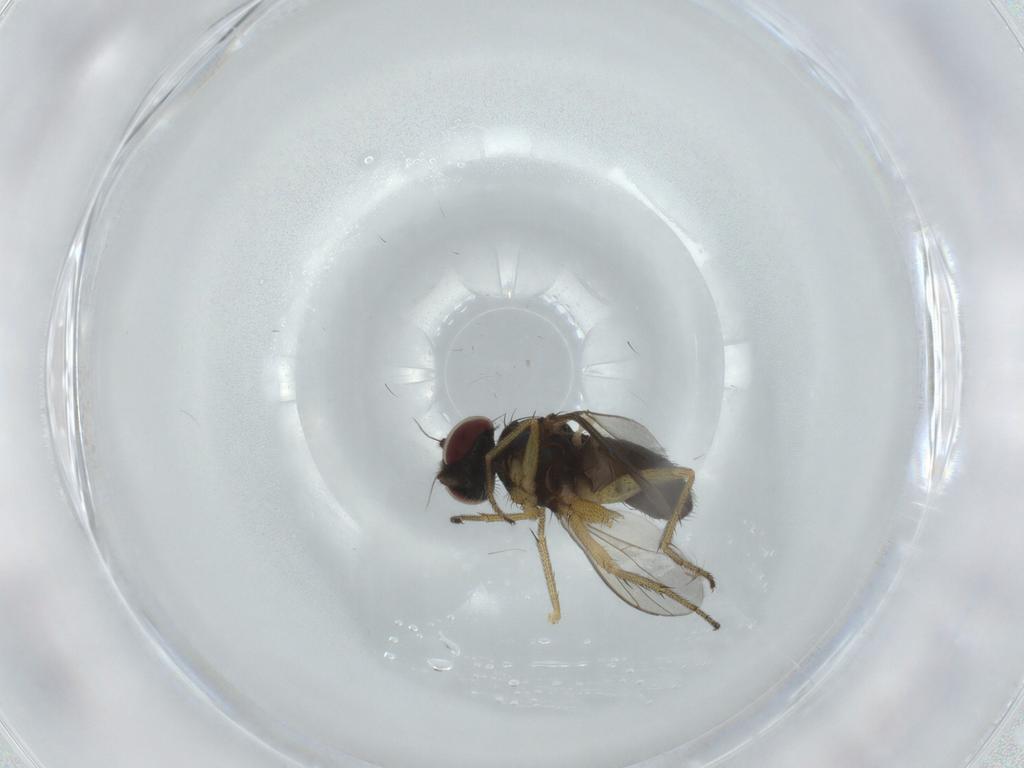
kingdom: Animalia
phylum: Arthropoda
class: Insecta
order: Diptera
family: Dolichopodidae
